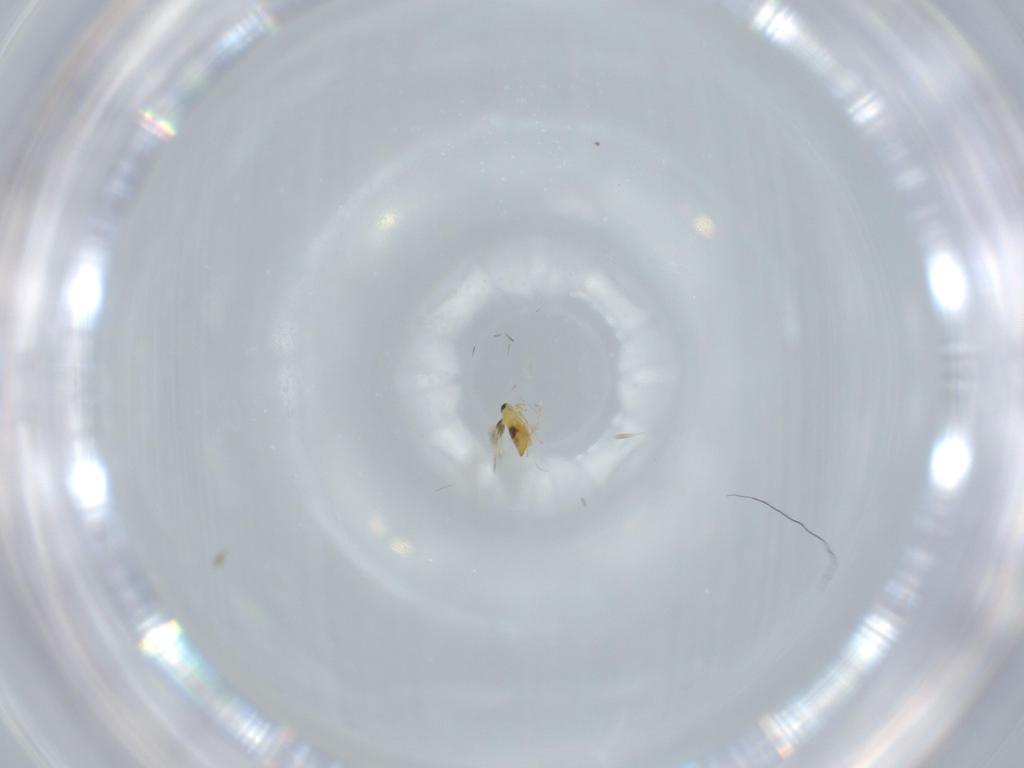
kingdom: Animalia
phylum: Arthropoda
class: Insecta
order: Hymenoptera
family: Signiphoridae
